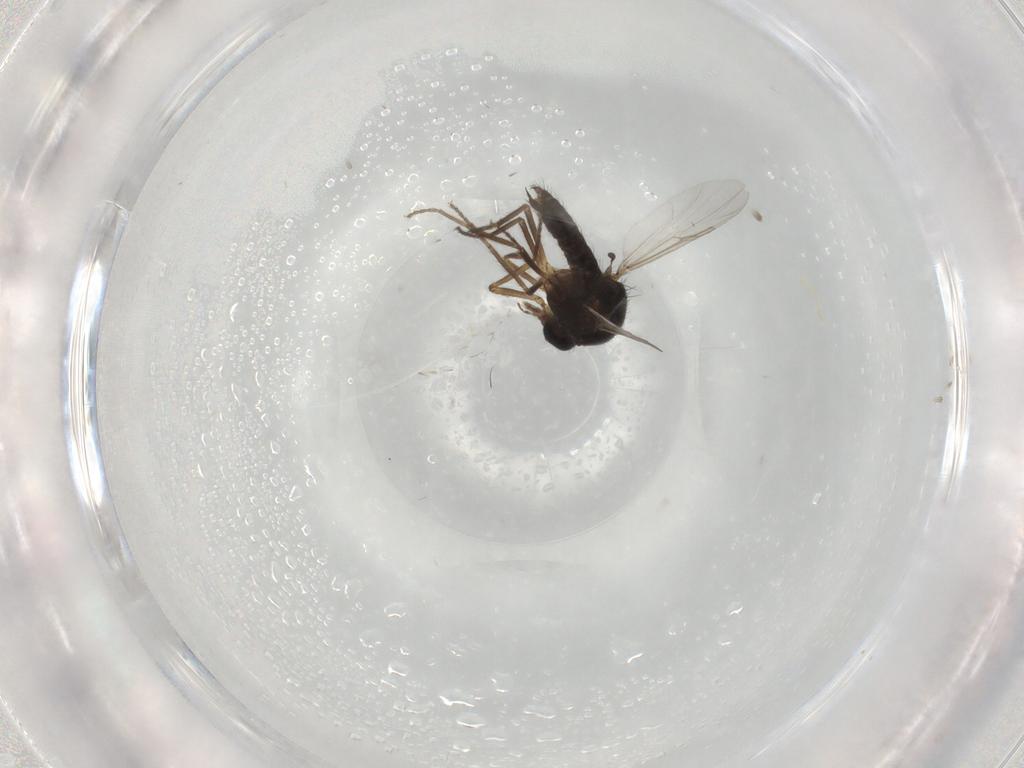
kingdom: Animalia
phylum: Arthropoda
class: Insecta
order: Diptera
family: Ceratopogonidae
